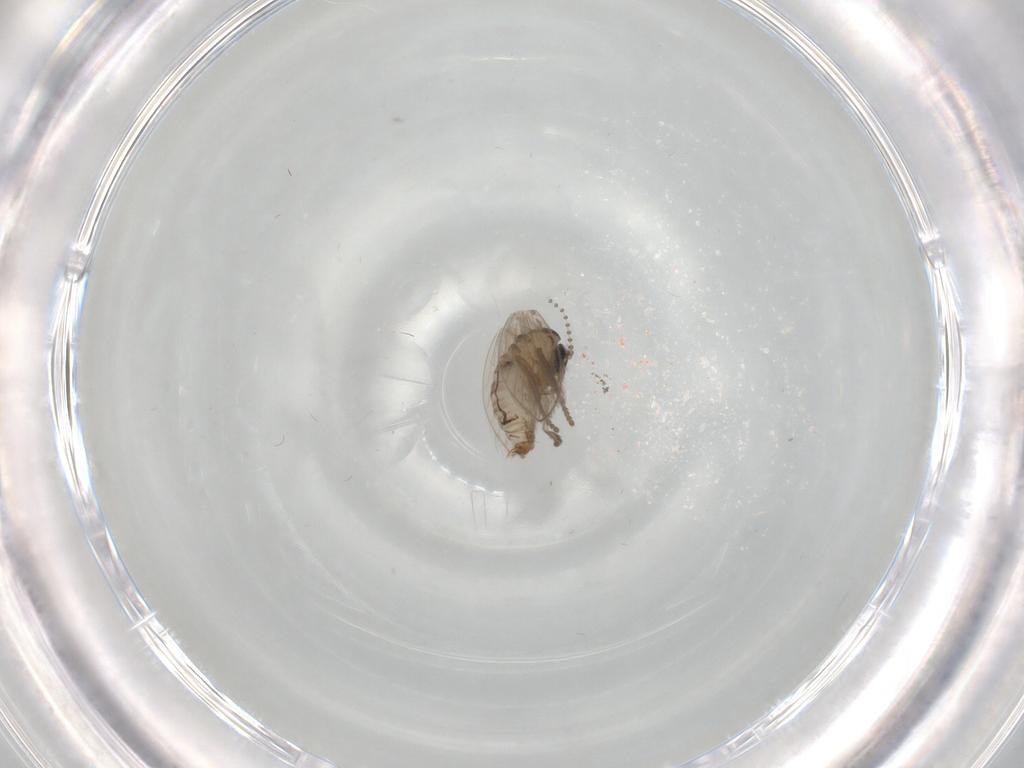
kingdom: Animalia
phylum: Arthropoda
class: Insecta
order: Diptera
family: Psychodidae
